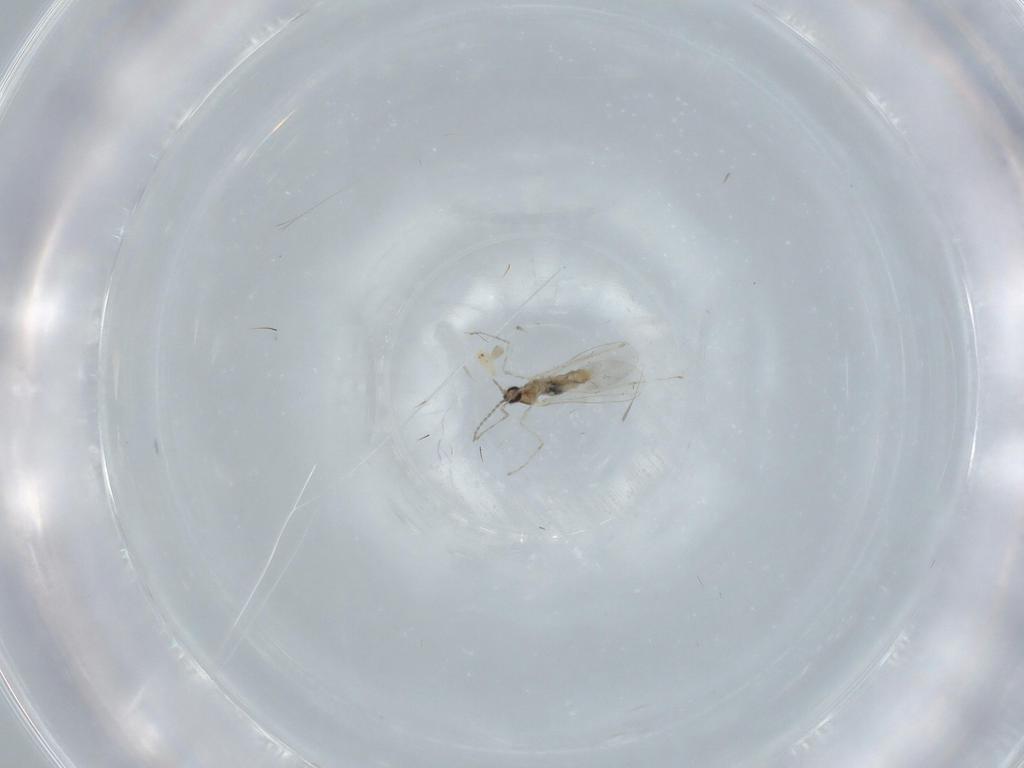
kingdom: Animalia
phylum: Arthropoda
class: Insecta
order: Diptera
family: Cecidomyiidae
